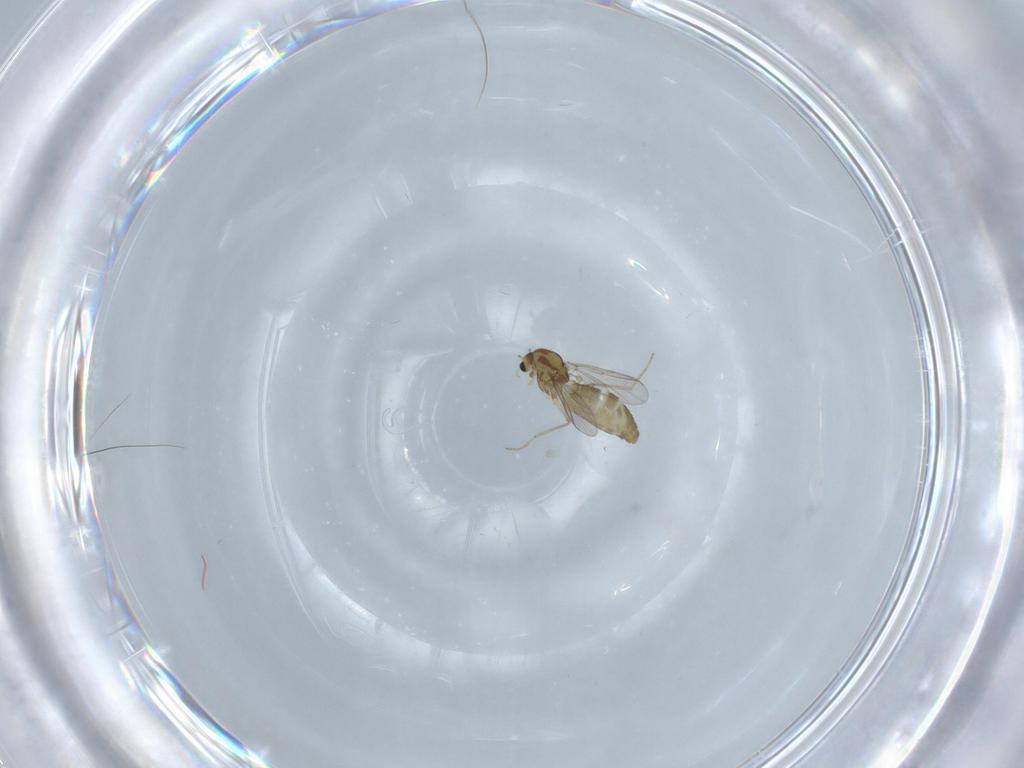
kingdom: Animalia
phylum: Arthropoda
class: Insecta
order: Diptera
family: Chironomidae
